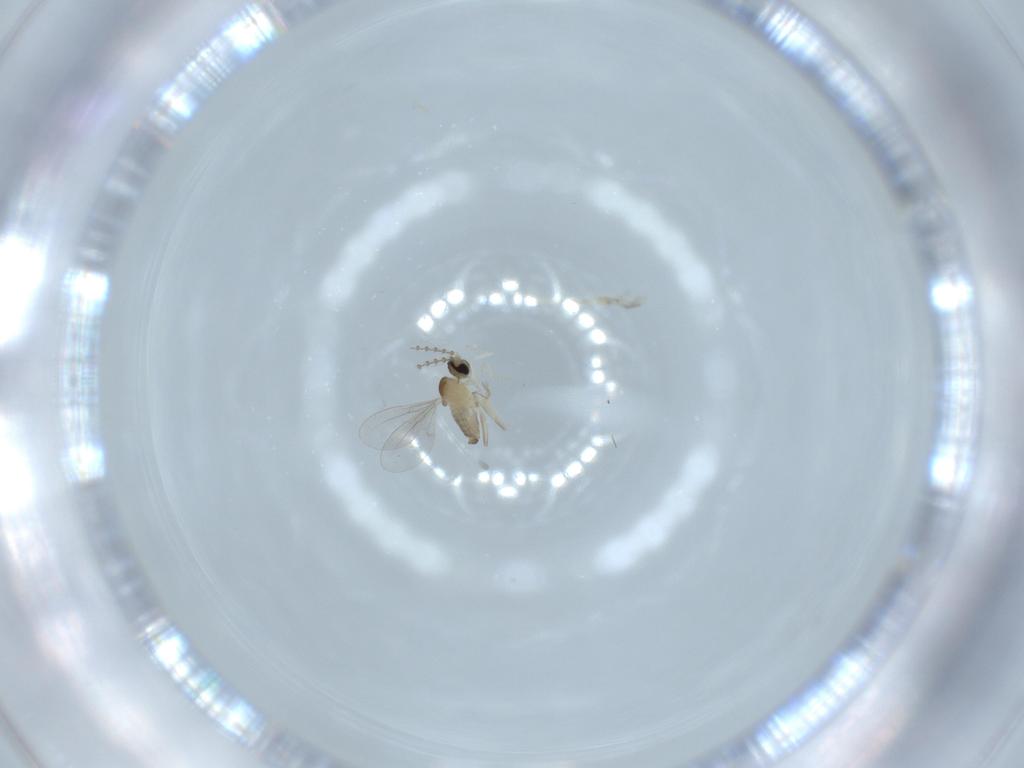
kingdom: Animalia
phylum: Arthropoda
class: Insecta
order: Diptera
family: Cecidomyiidae
